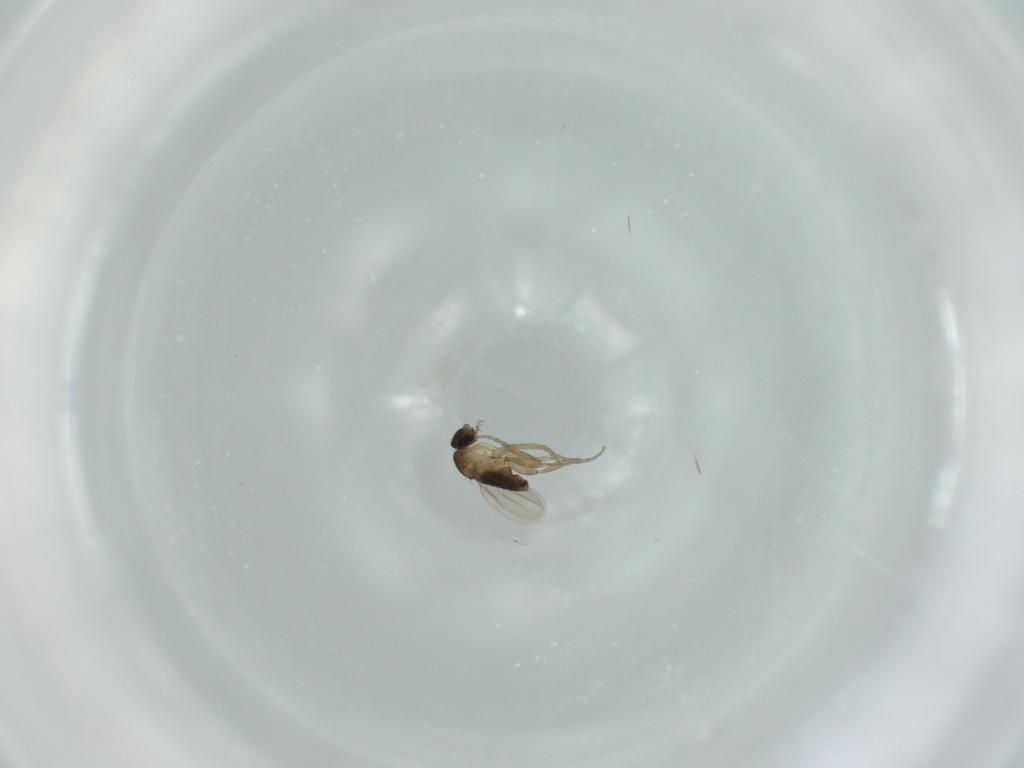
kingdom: Animalia
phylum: Arthropoda
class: Insecta
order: Diptera
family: Phoridae
